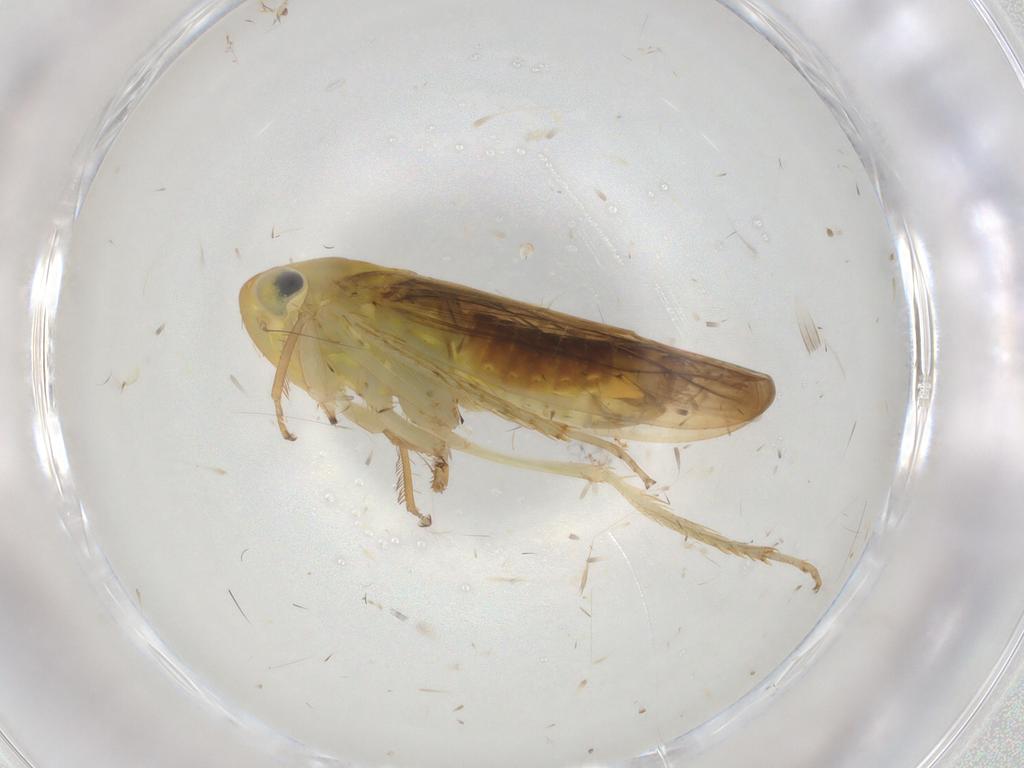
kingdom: Animalia
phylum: Arthropoda
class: Insecta
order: Hemiptera
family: Cicadellidae
